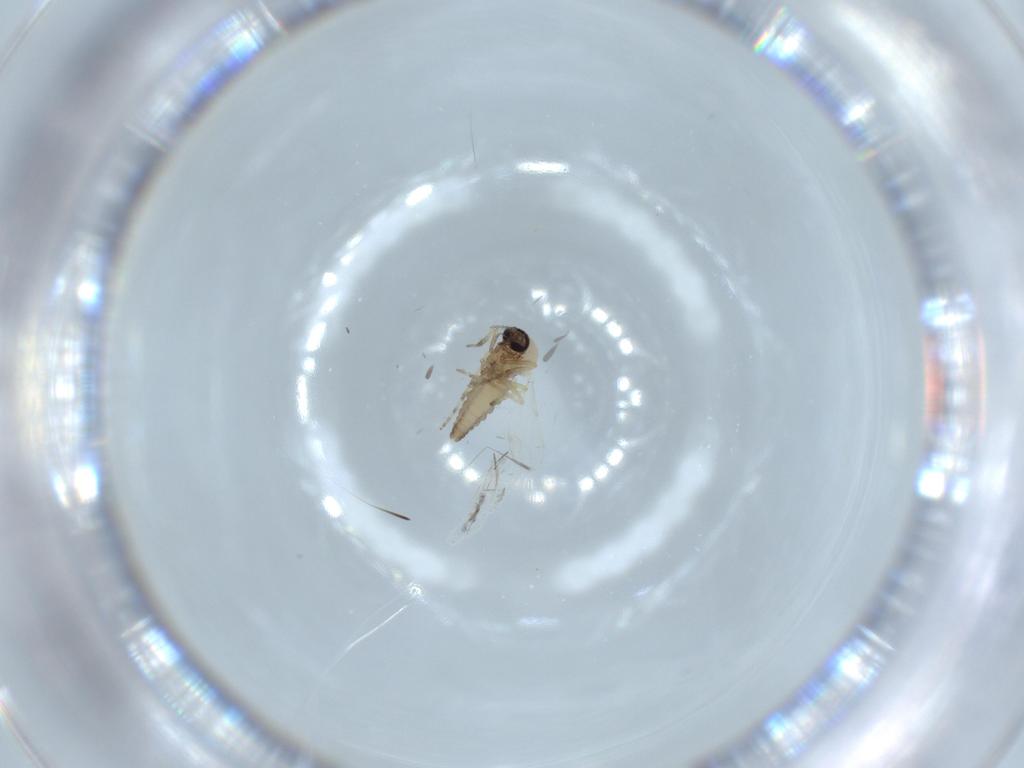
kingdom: Animalia
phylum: Arthropoda
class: Insecta
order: Diptera
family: Ceratopogonidae
